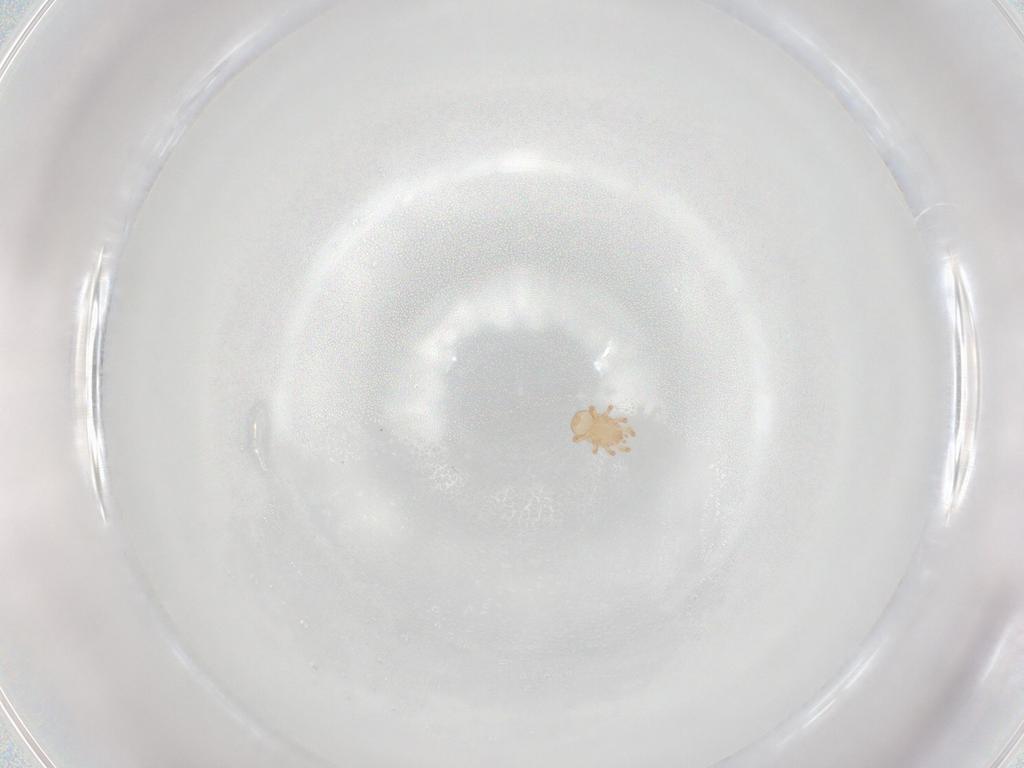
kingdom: Animalia
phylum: Arthropoda
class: Arachnida
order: Mesostigmata
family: Halolaelapidae
